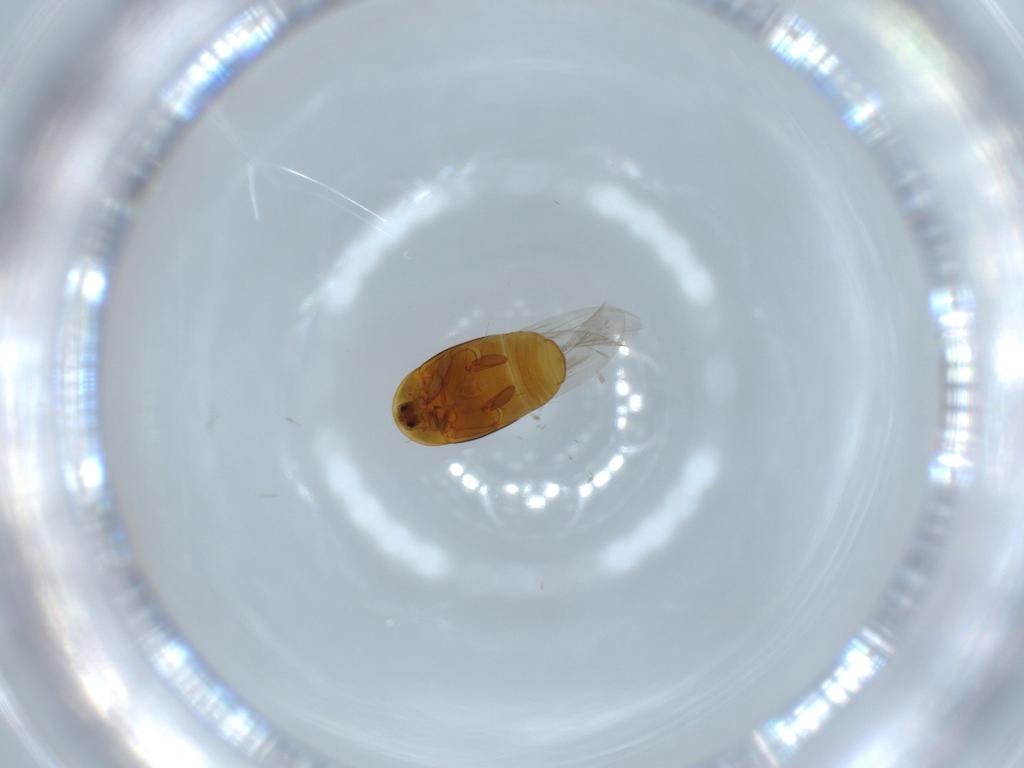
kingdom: Animalia
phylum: Arthropoda
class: Insecta
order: Coleoptera
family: Corylophidae
